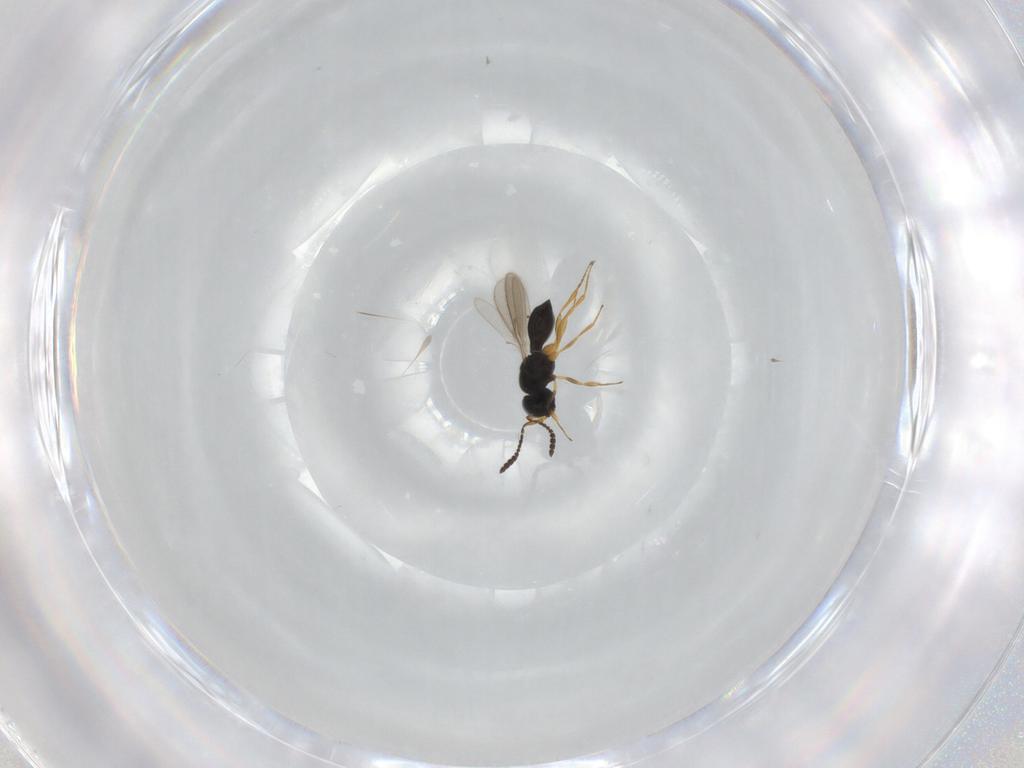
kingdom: Animalia
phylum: Arthropoda
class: Insecta
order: Hymenoptera
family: Scelionidae
